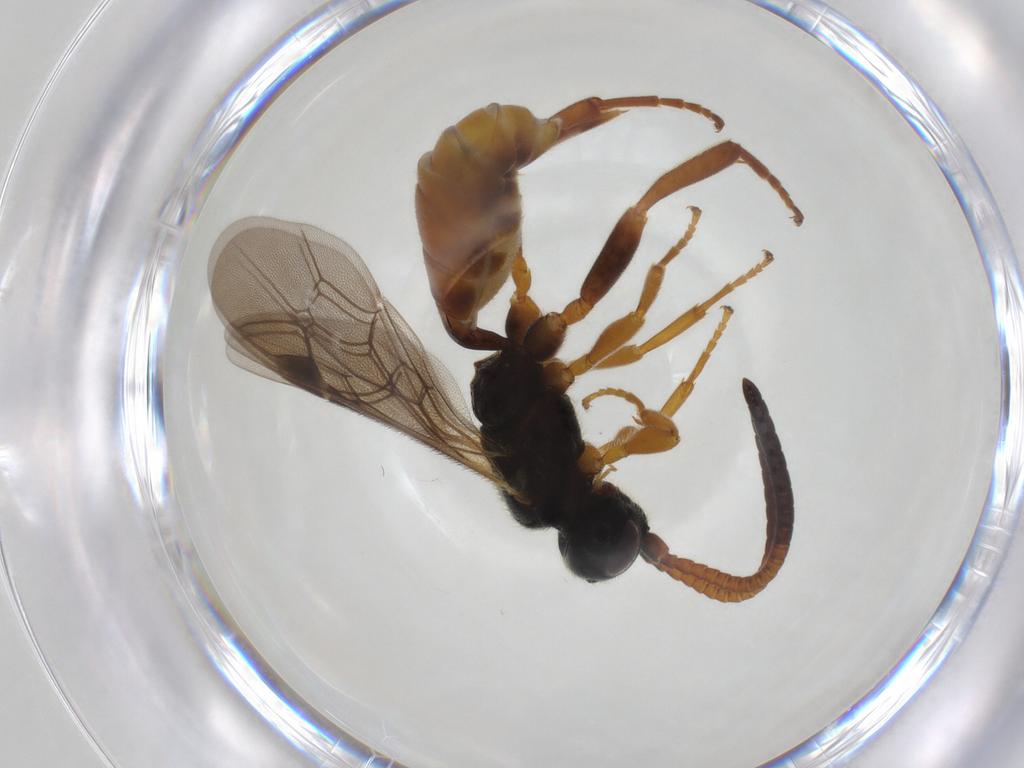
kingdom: Animalia
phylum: Arthropoda
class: Insecta
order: Hymenoptera
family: Ichneumonidae
